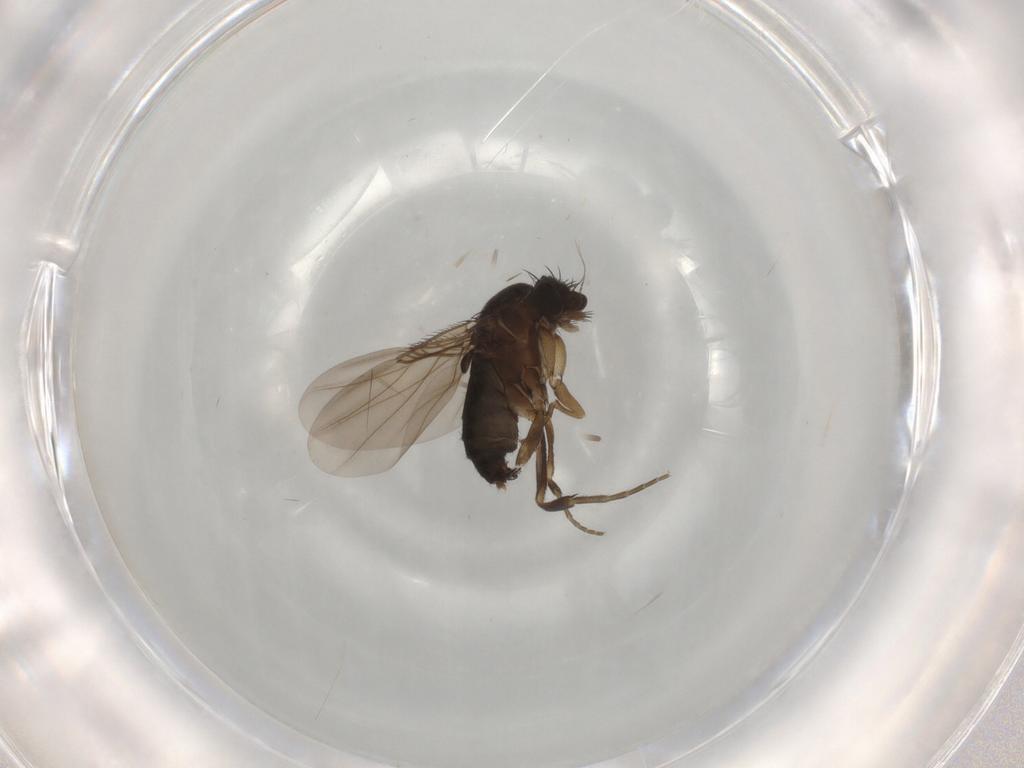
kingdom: Animalia
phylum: Arthropoda
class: Insecta
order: Diptera
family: Phoridae
